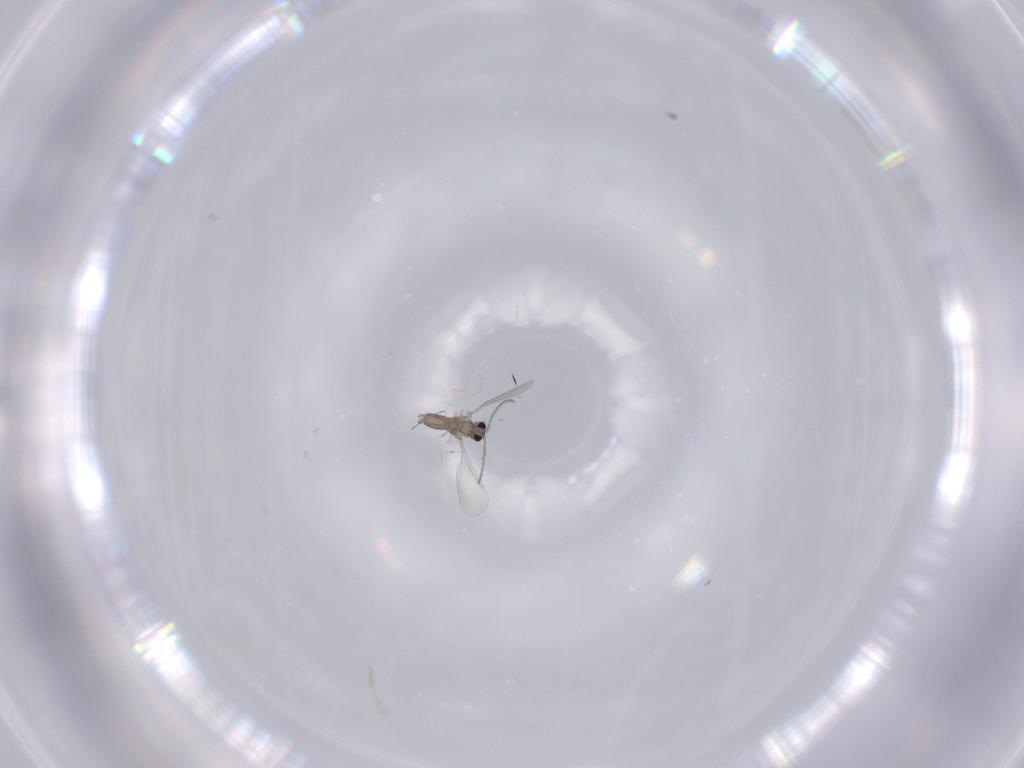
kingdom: Animalia
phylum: Arthropoda
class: Insecta
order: Diptera
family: Cecidomyiidae
